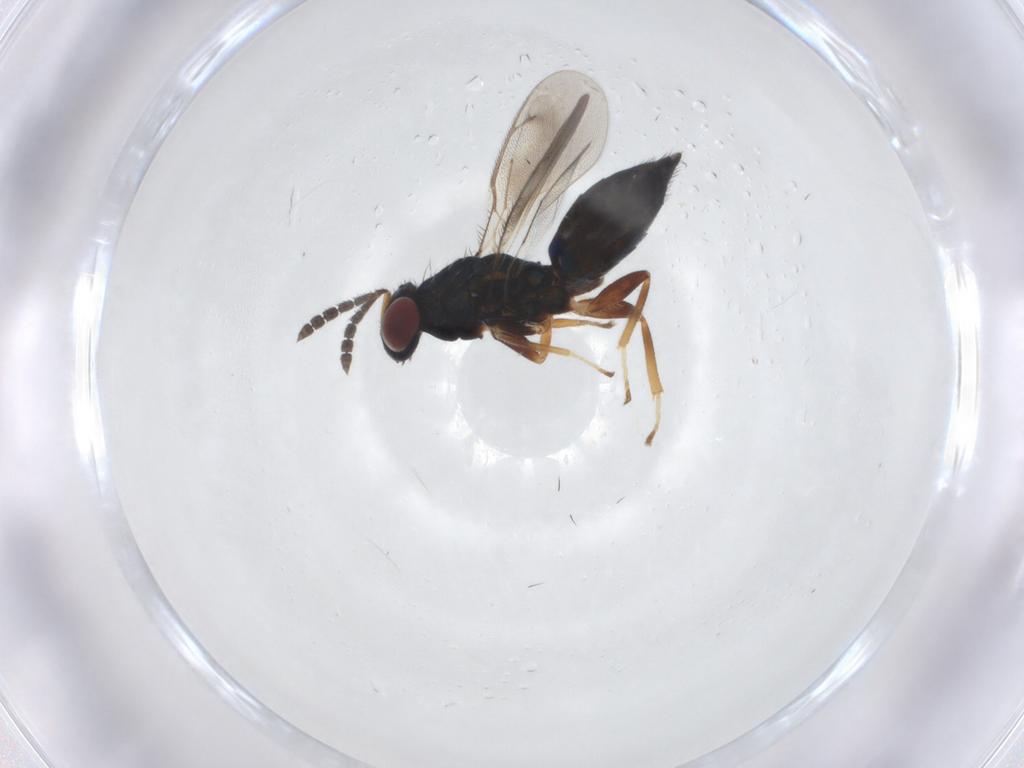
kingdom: Animalia
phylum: Arthropoda
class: Insecta
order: Hymenoptera
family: Eulophidae
